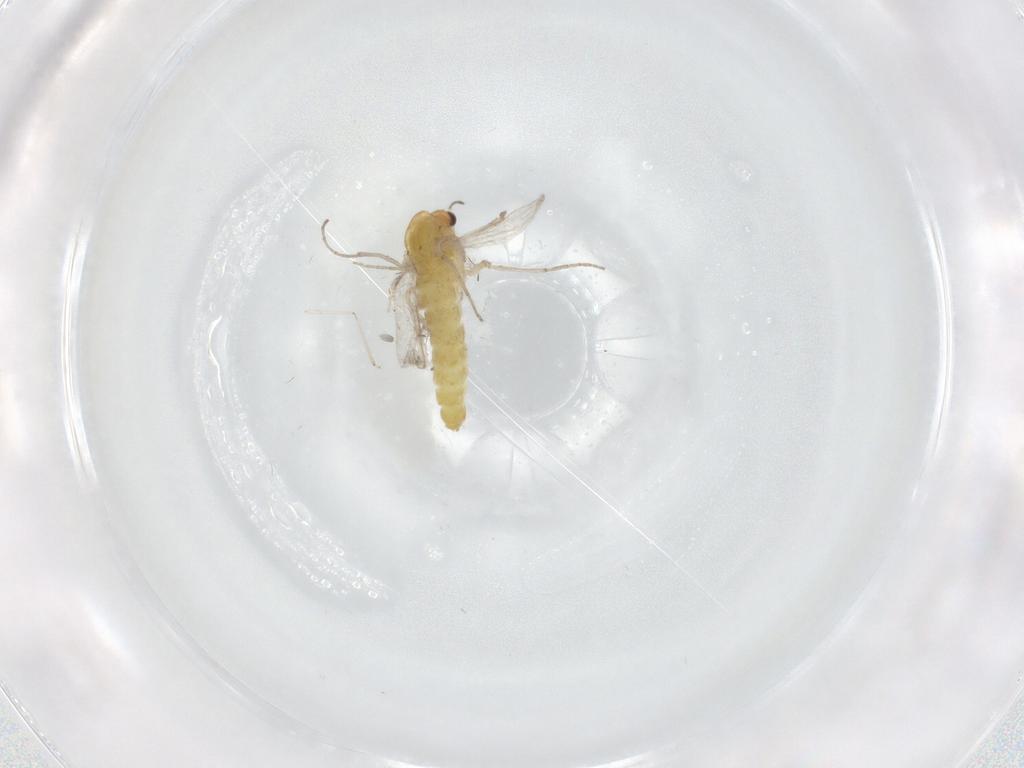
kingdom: Animalia
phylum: Arthropoda
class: Insecta
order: Diptera
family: Chironomidae
